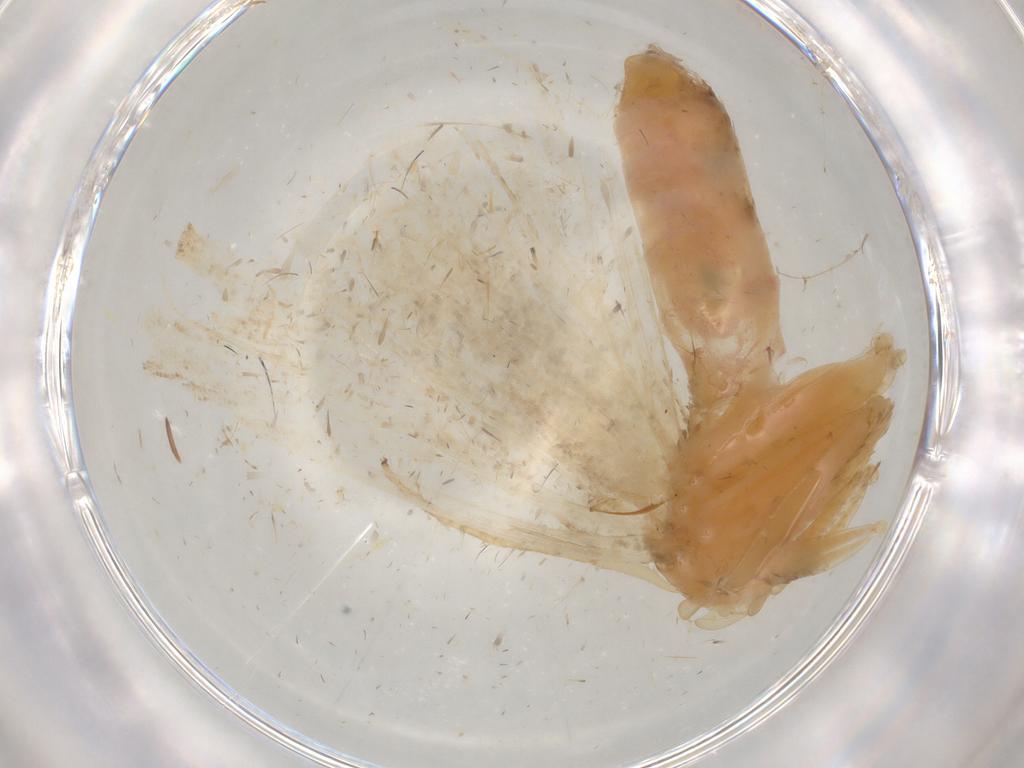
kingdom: Animalia
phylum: Arthropoda
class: Insecta
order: Lepidoptera
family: Erebidae
